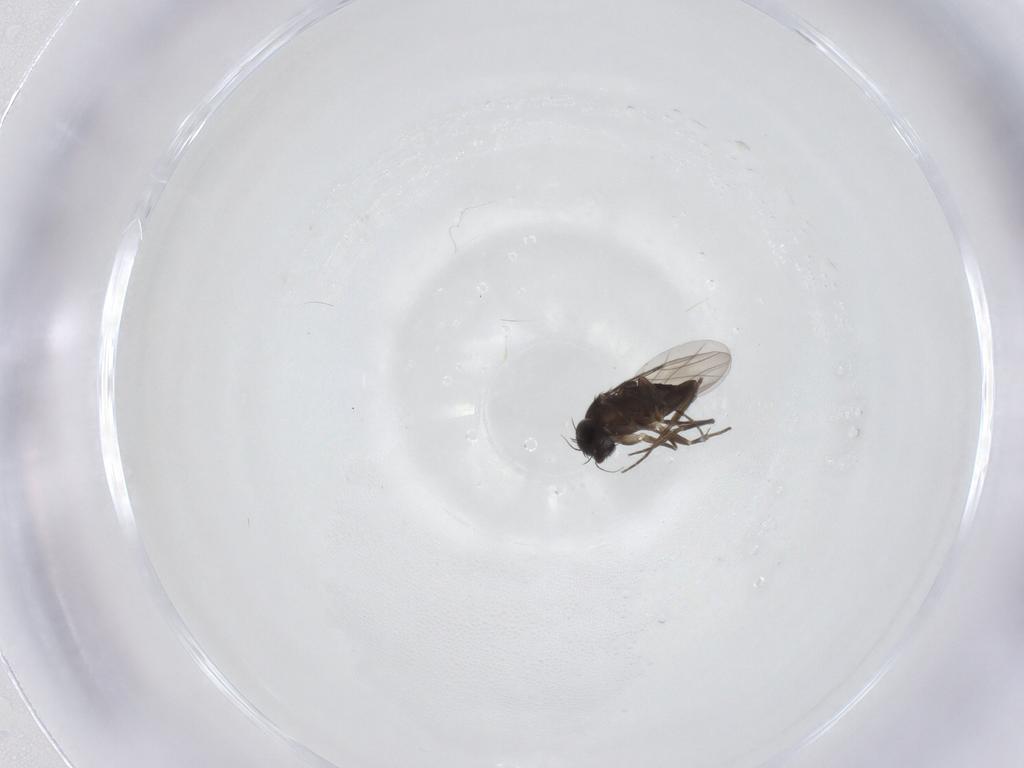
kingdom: Animalia
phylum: Arthropoda
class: Insecta
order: Diptera
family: Phoridae
